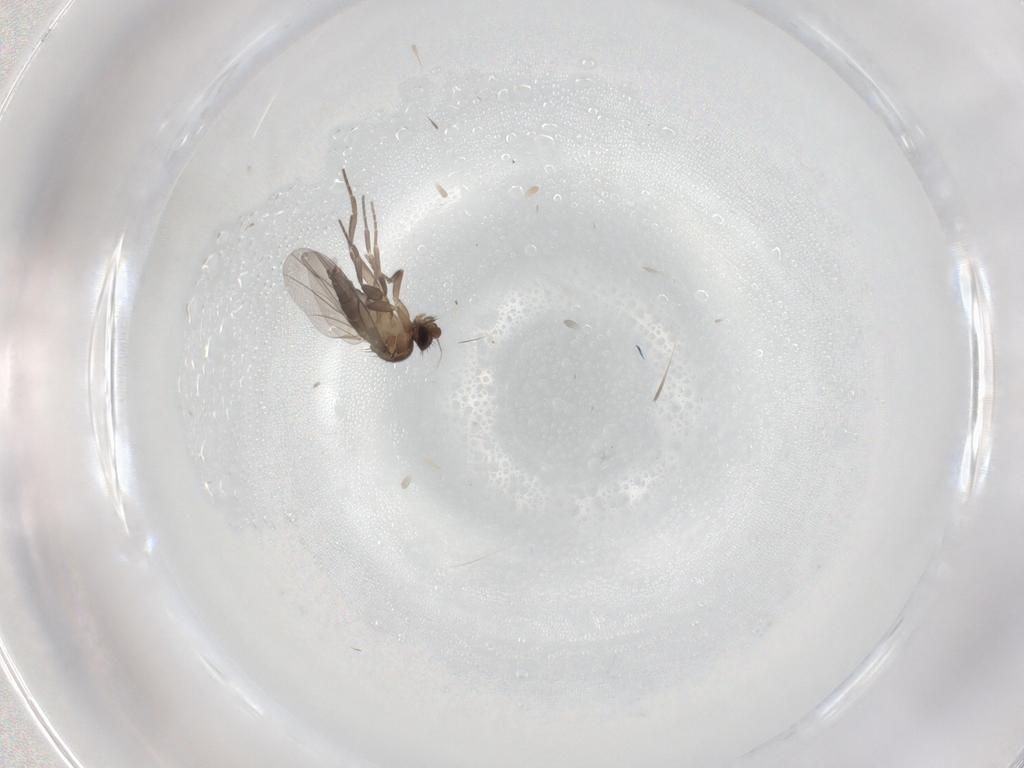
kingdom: Animalia
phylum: Arthropoda
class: Insecta
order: Diptera
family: Phoridae
